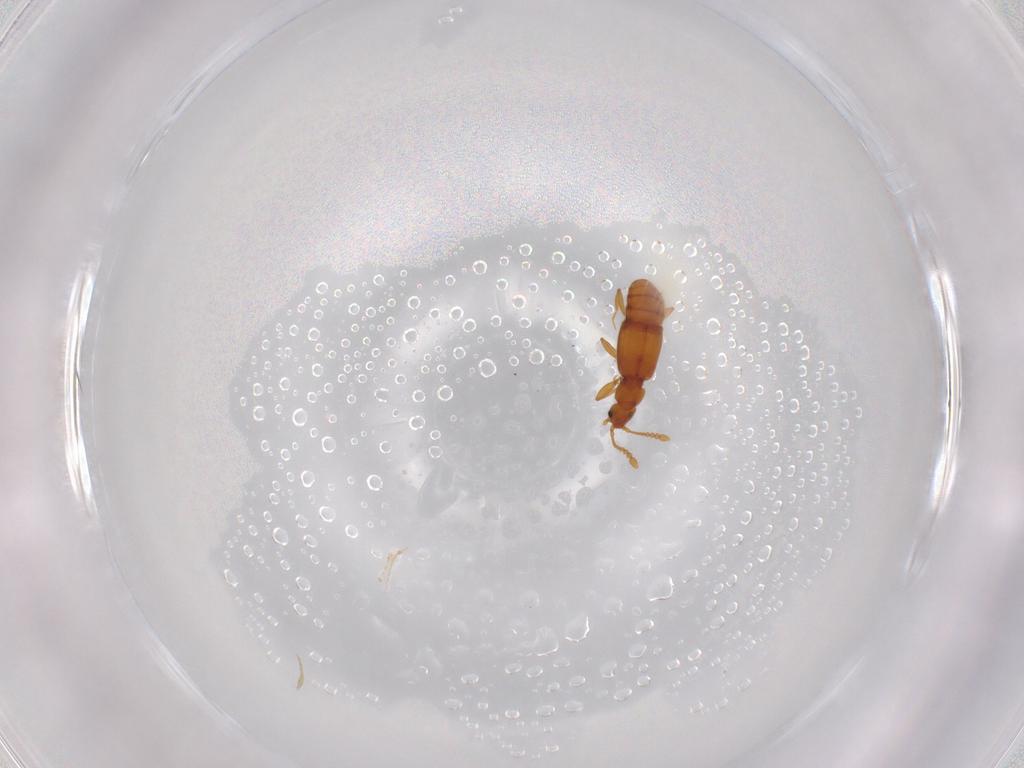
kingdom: Animalia
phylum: Arthropoda
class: Insecta
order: Coleoptera
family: Staphylinidae
